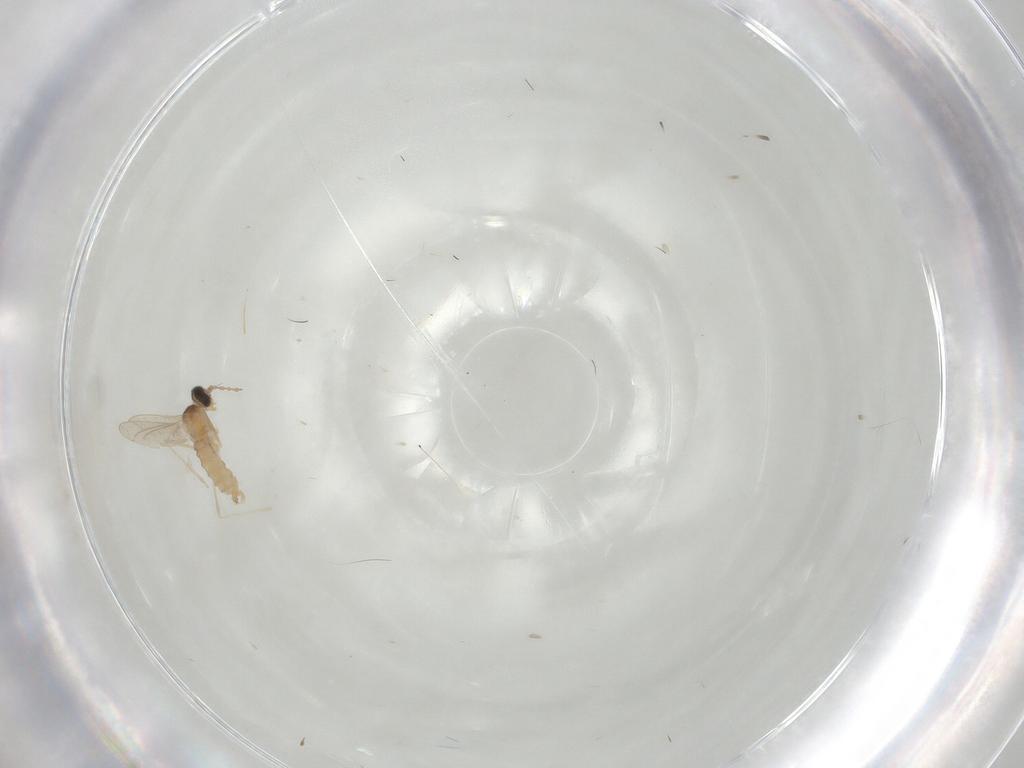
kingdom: Animalia
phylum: Arthropoda
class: Insecta
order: Diptera
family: Cecidomyiidae
